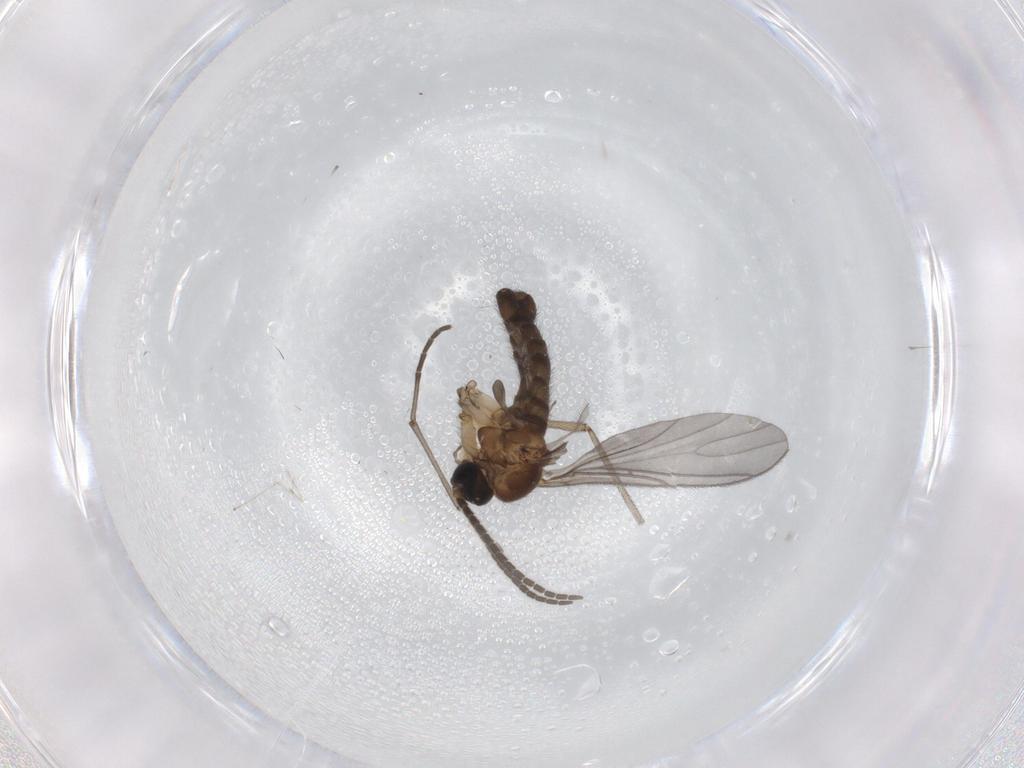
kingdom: Animalia
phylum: Arthropoda
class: Insecta
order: Diptera
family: Sciaridae
